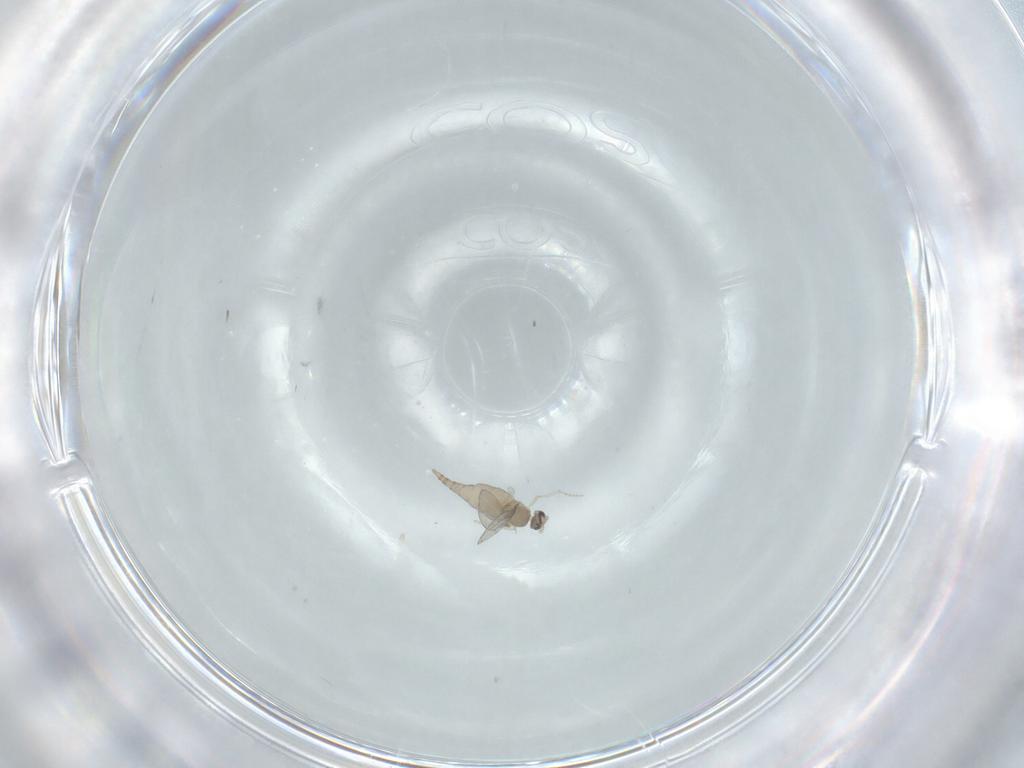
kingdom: Animalia
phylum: Arthropoda
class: Insecta
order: Diptera
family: Cecidomyiidae
